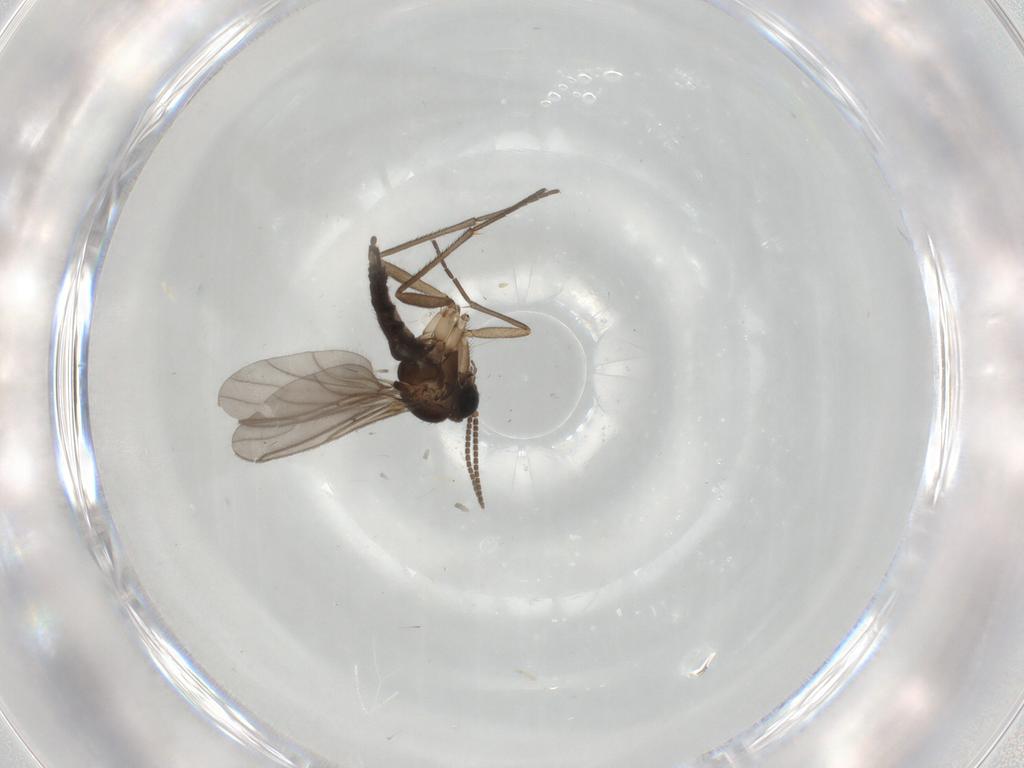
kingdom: Animalia
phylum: Arthropoda
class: Insecta
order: Diptera
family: Sciaridae
